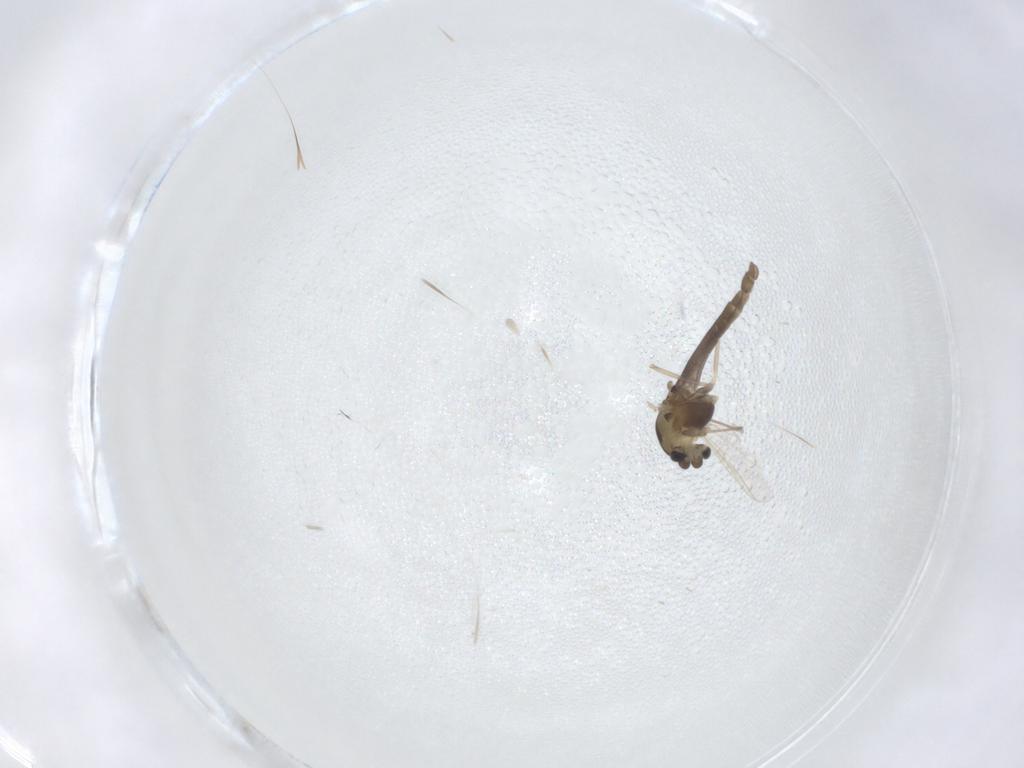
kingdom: Animalia
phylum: Arthropoda
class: Insecta
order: Diptera
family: Chironomidae
